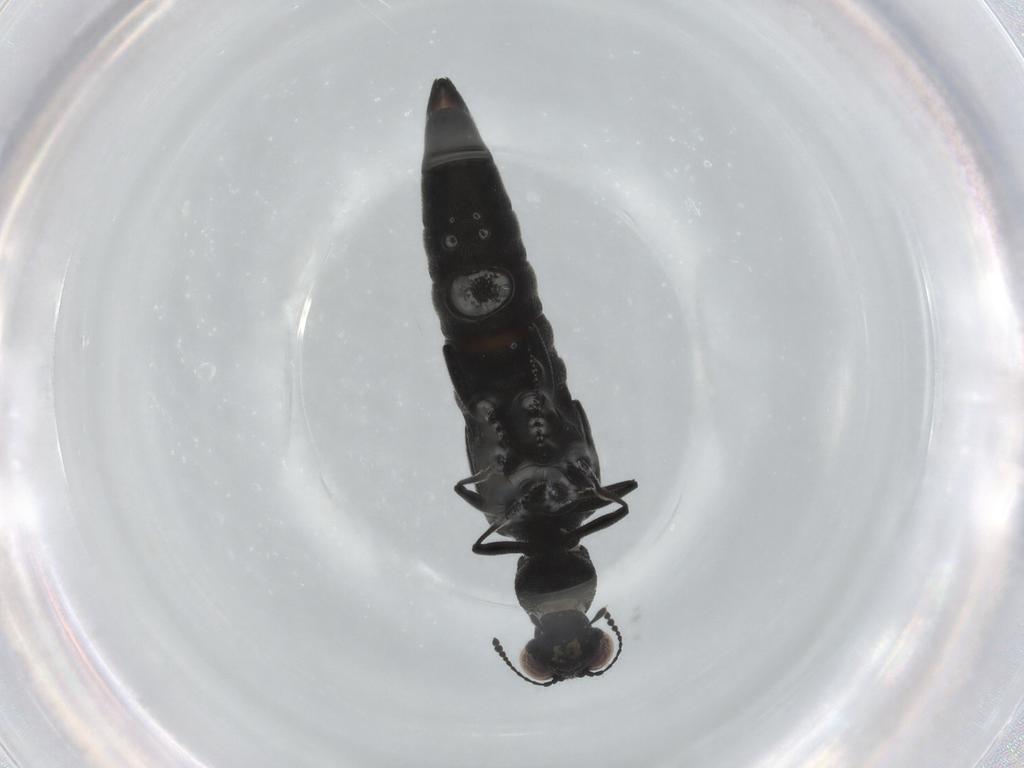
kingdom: Animalia
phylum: Arthropoda
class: Insecta
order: Coleoptera
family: Staphylinidae
